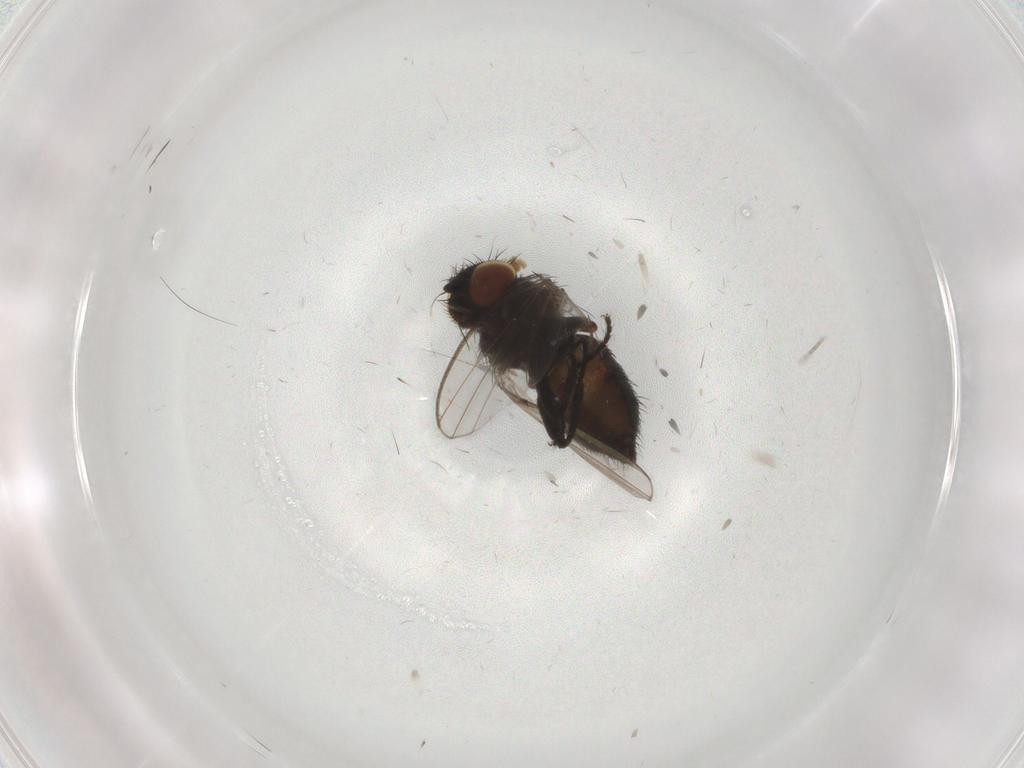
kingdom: Animalia
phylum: Arthropoda
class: Insecta
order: Diptera
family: Milichiidae
